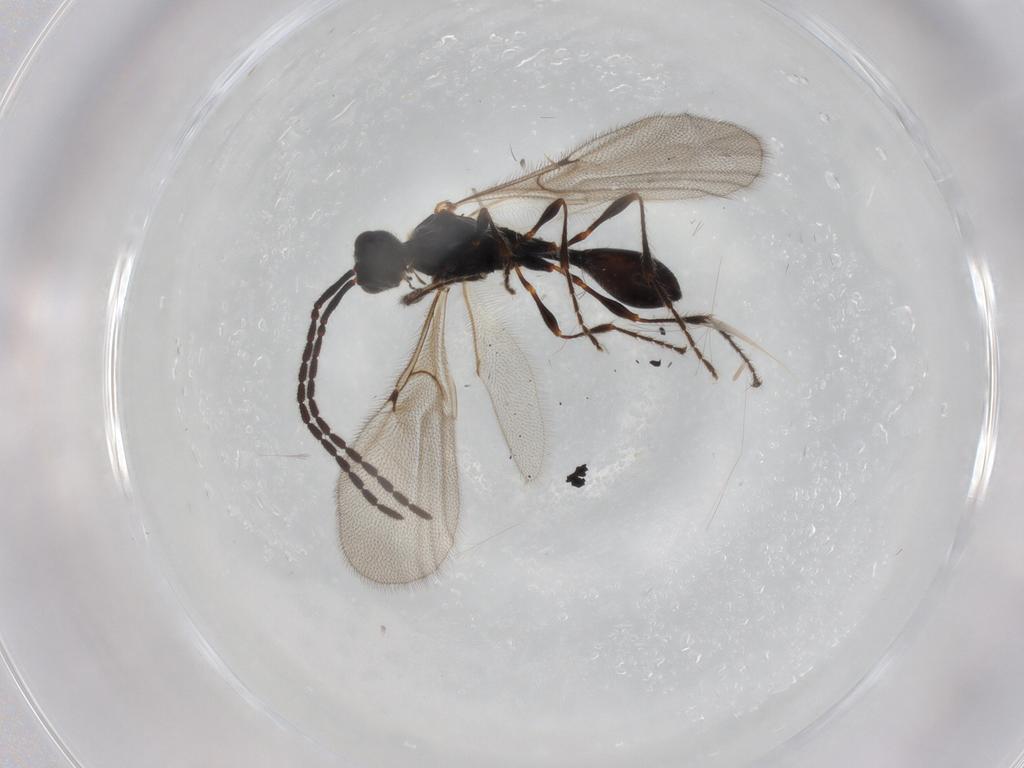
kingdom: Animalia
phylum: Arthropoda
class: Insecta
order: Hymenoptera
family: Diapriidae
